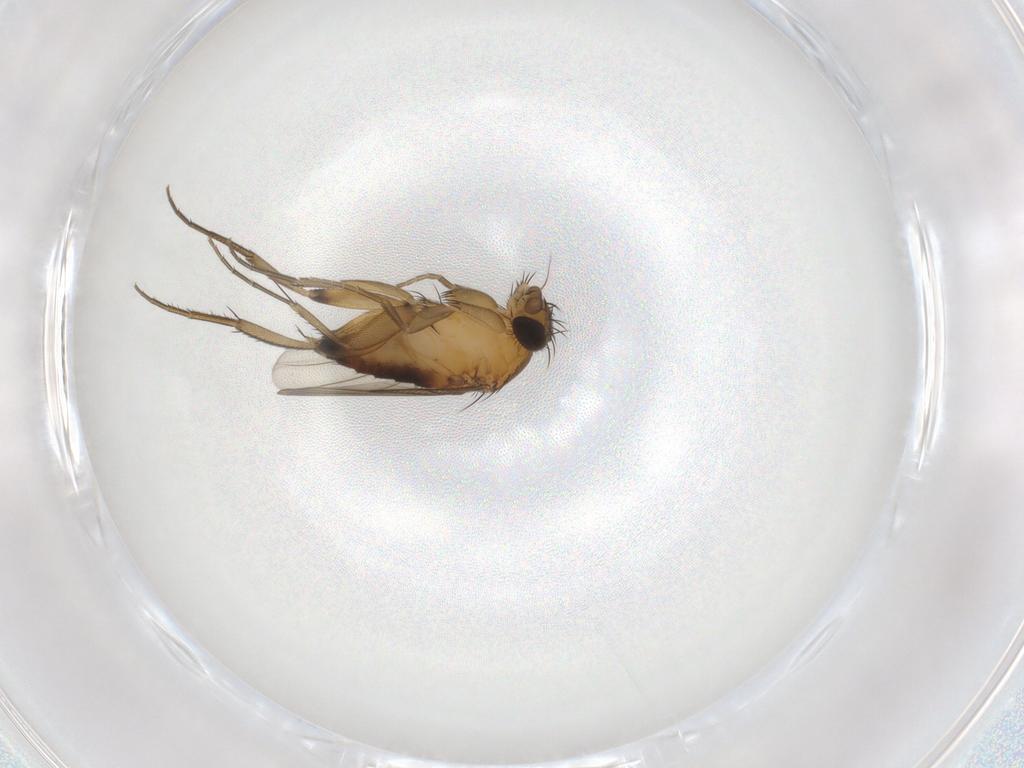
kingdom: Animalia
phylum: Arthropoda
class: Insecta
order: Diptera
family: Phoridae
